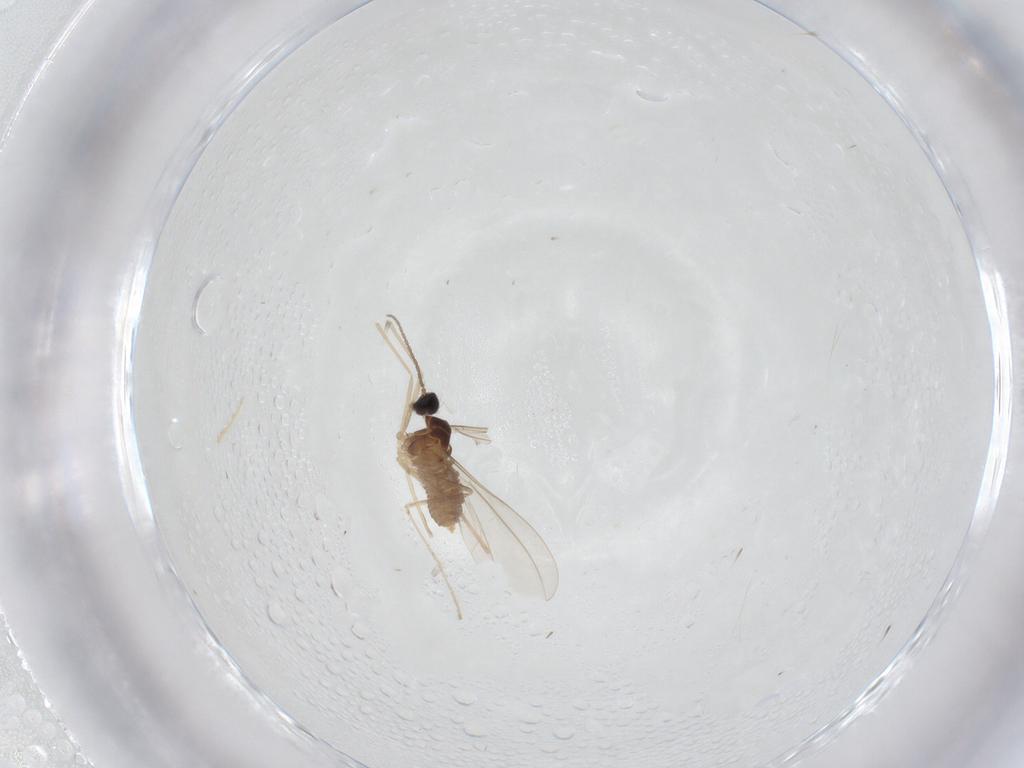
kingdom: Animalia
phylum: Arthropoda
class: Insecta
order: Diptera
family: Cecidomyiidae
